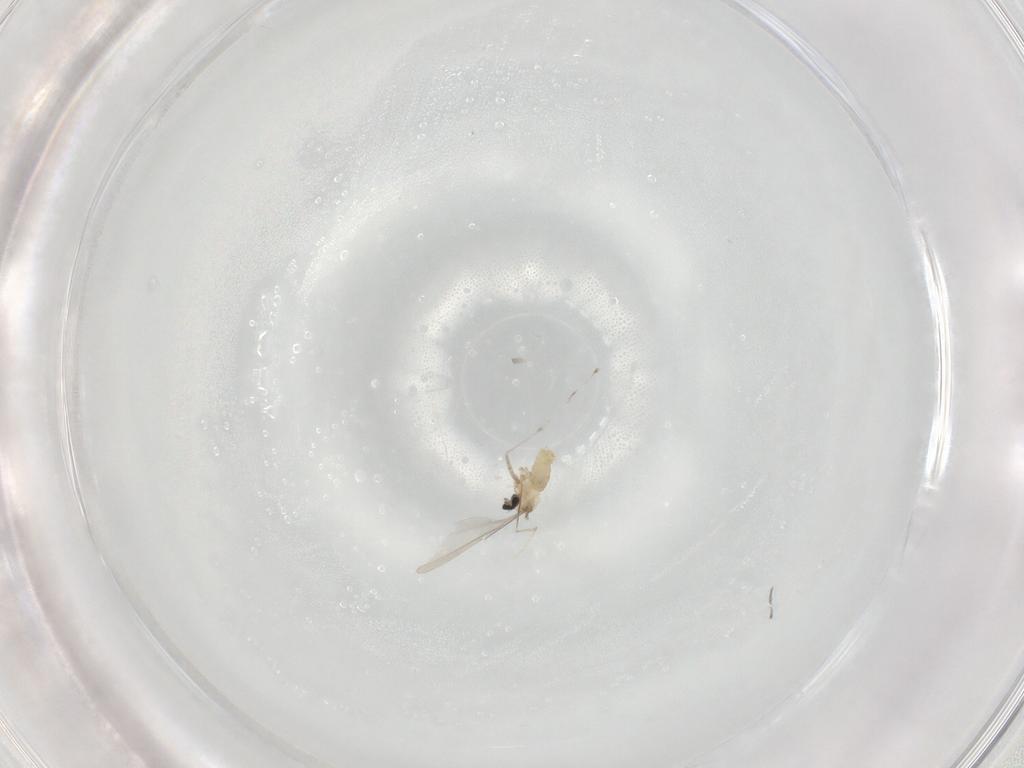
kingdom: Animalia
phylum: Arthropoda
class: Insecta
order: Diptera
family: Cecidomyiidae
